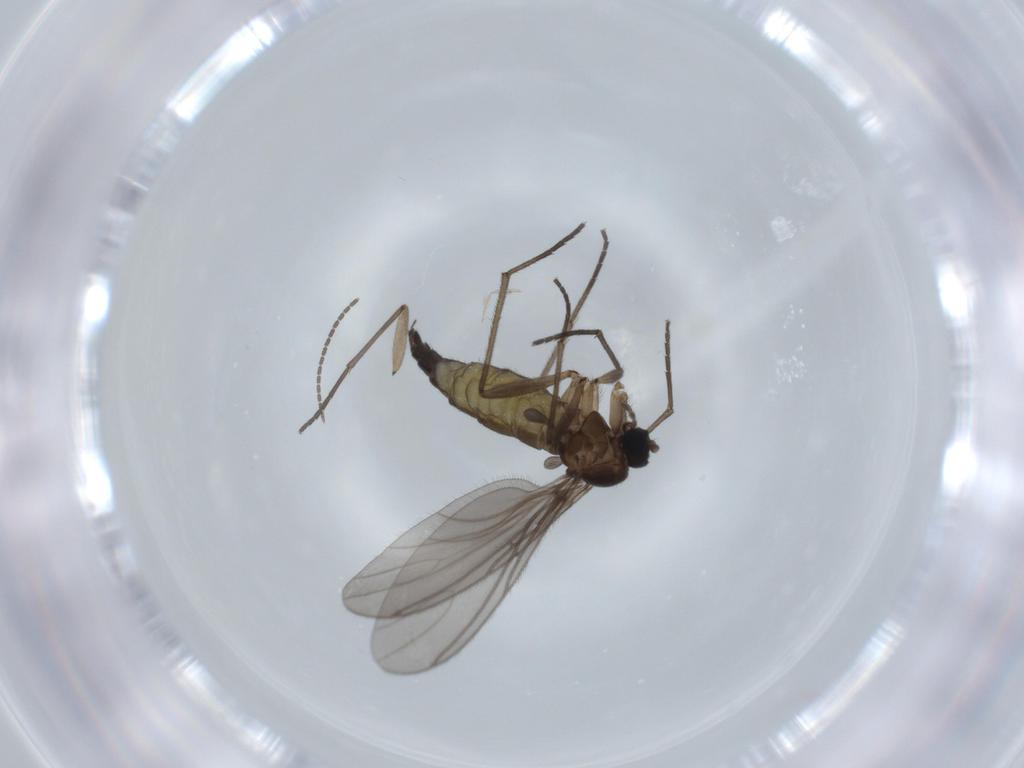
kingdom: Animalia
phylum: Arthropoda
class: Insecta
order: Diptera
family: Sciaridae
